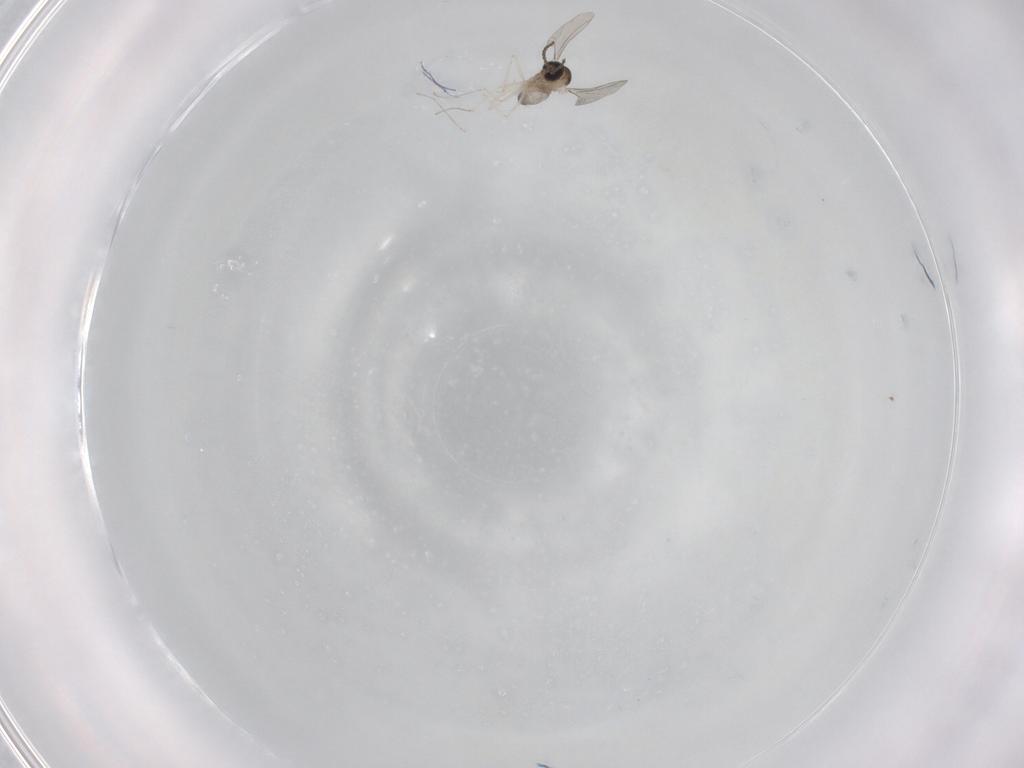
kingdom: Animalia
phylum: Arthropoda
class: Insecta
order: Diptera
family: Cecidomyiidae
